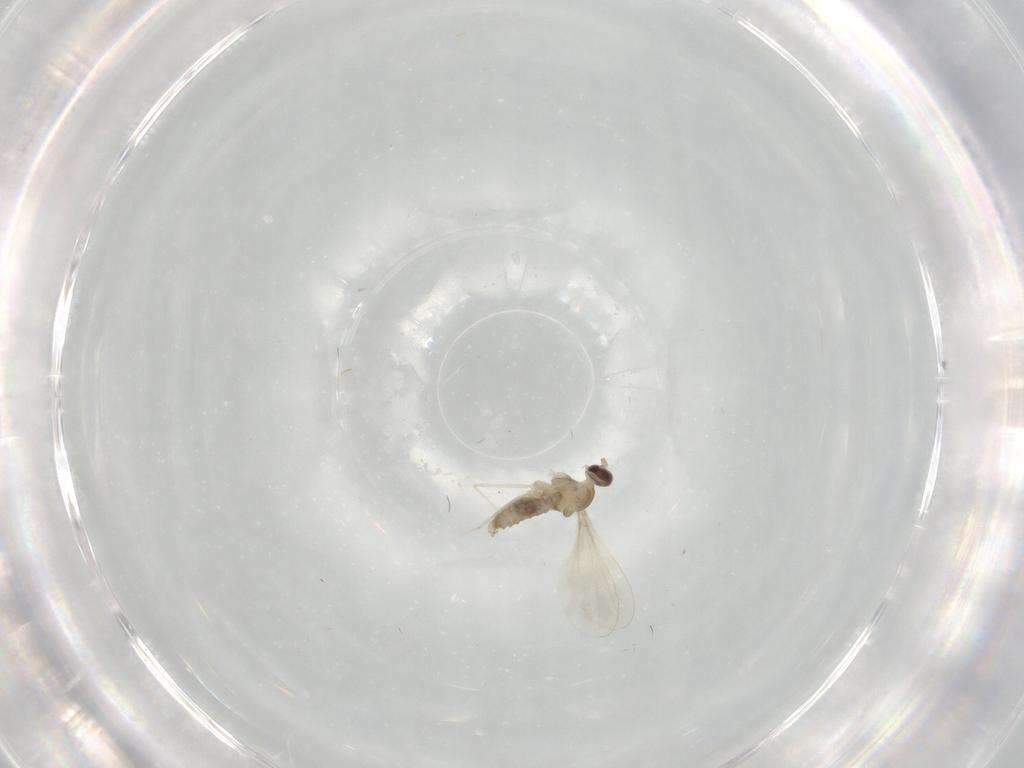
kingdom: Animalia
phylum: Arthropoda
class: Insecta
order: Diptera
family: Cecidomyiidae
